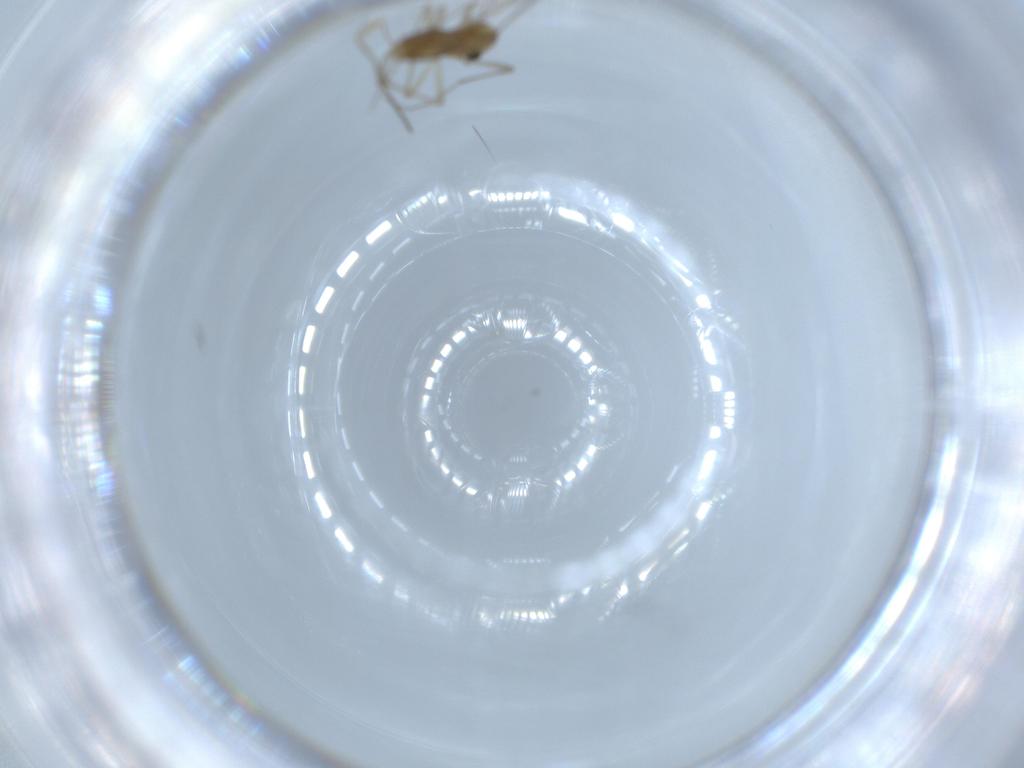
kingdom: Animalia
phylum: Arthropoda
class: Insecta
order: Diptera
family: Chironomidae
